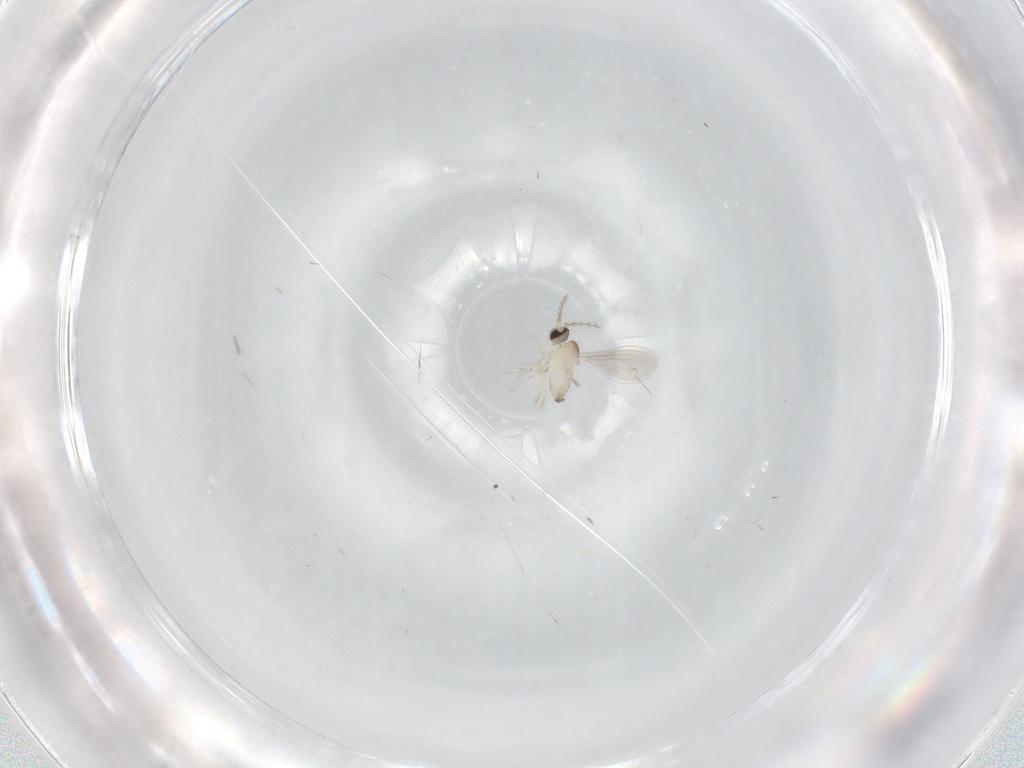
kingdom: Animalia
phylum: Arthropoda
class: Insecta
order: Diptera
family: Cecidomyiidae
